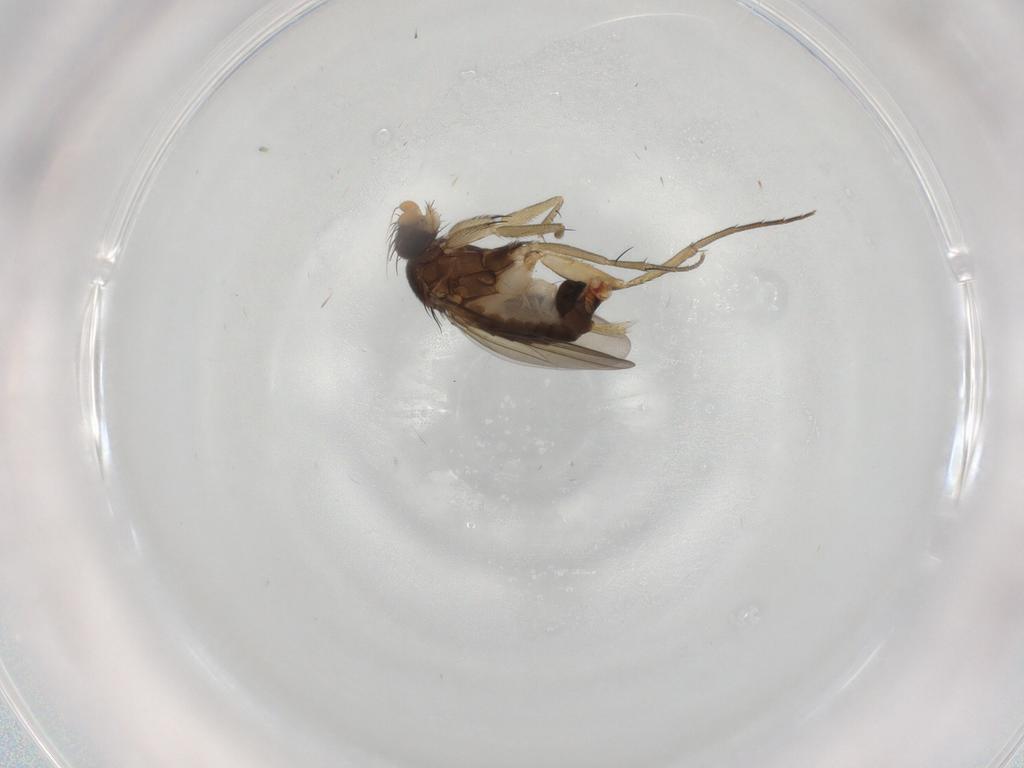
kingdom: Animalia
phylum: Arthropoda
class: Insecta
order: Diptera
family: Phoridae
